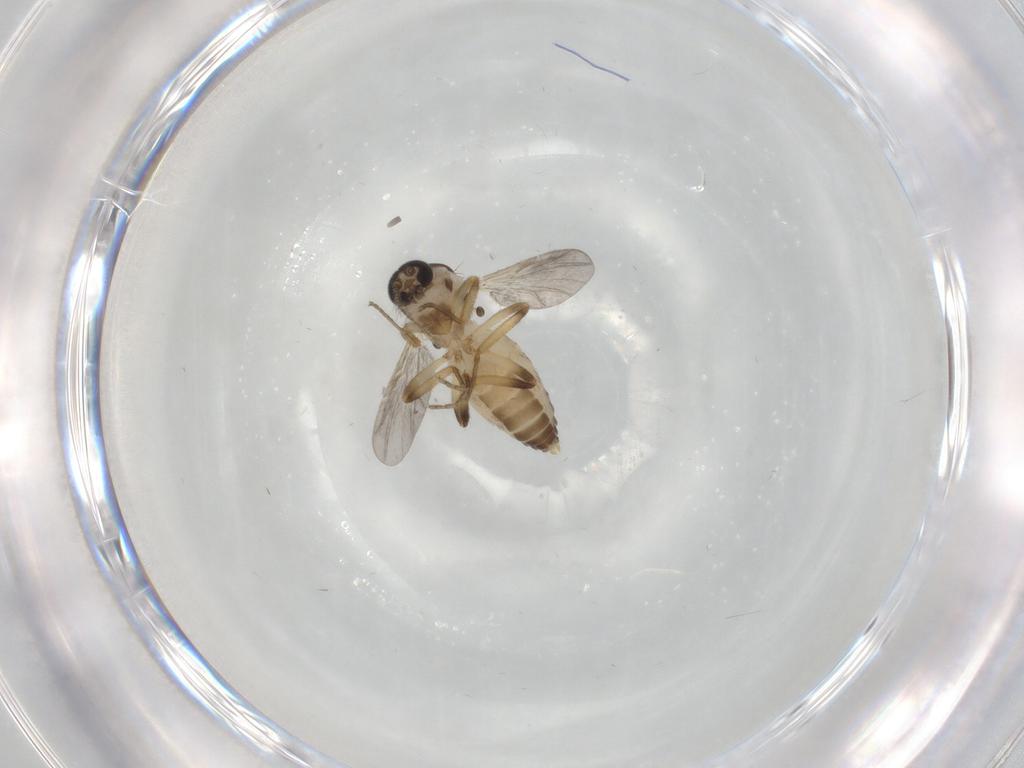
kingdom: Animalia
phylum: Arthropoda
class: Insecta
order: Diptera
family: Ceratopogonidae
